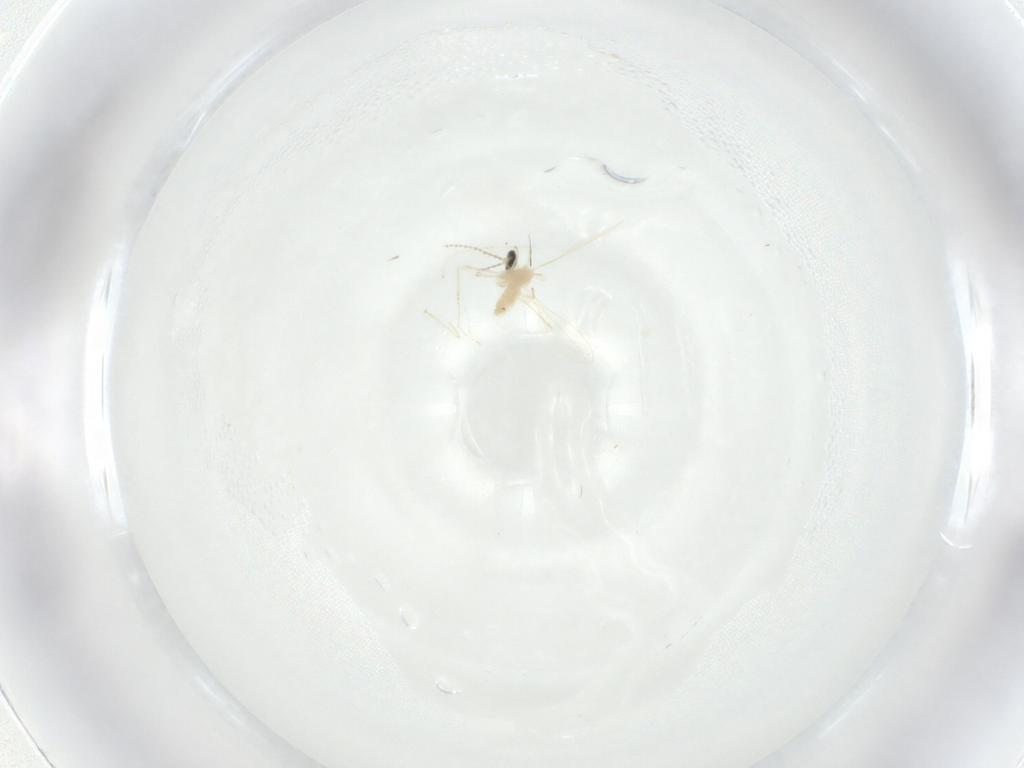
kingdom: Animalia
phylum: Arthropoda
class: Insecta
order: Diptera
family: Cecidomyiidae
